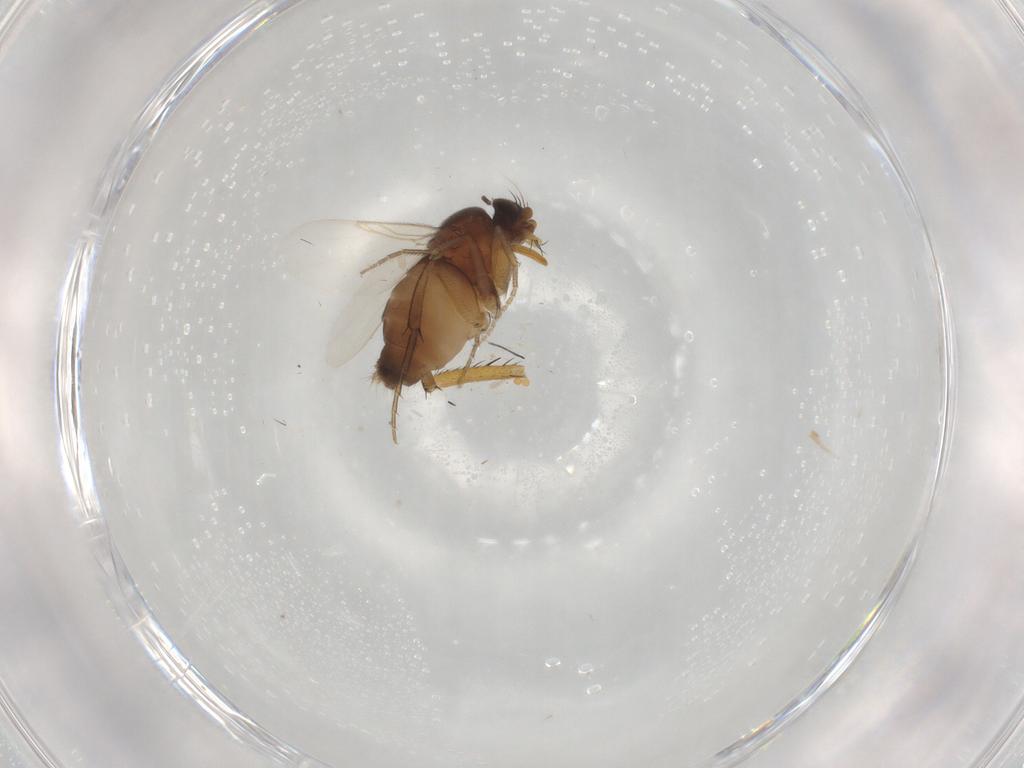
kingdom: Animalia
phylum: Arthropoda
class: Insecta
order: Diptera
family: Phoridae
